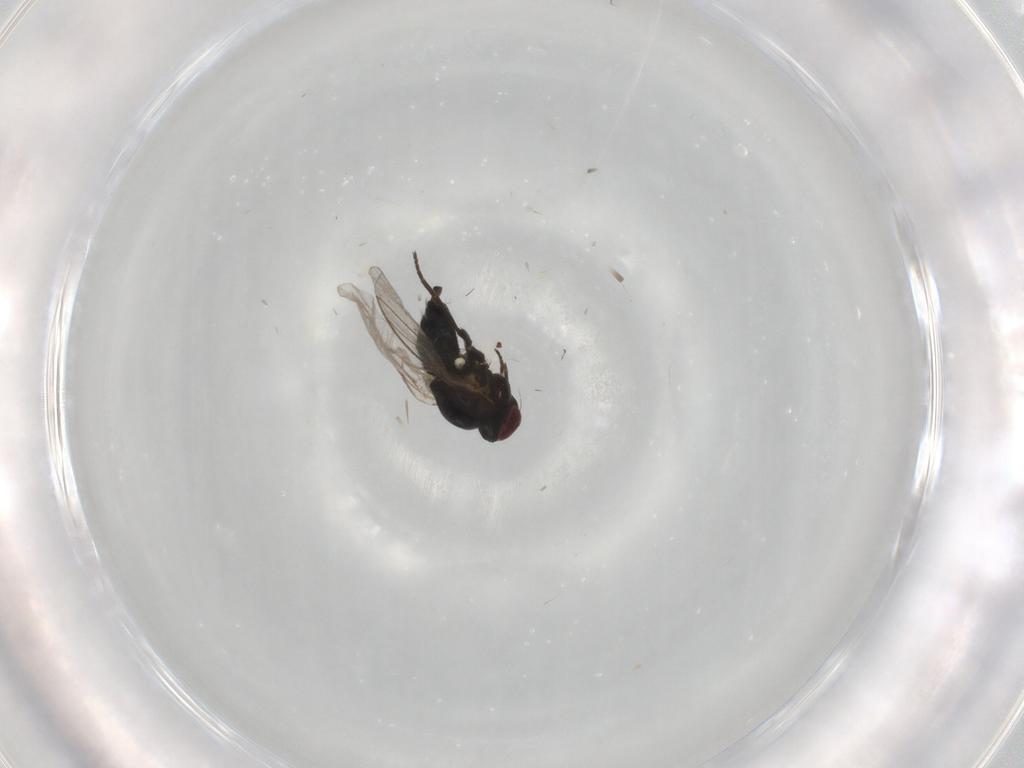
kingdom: Animalia
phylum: Arthropoda
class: Insecta
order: Diptera
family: Agromyzidae
